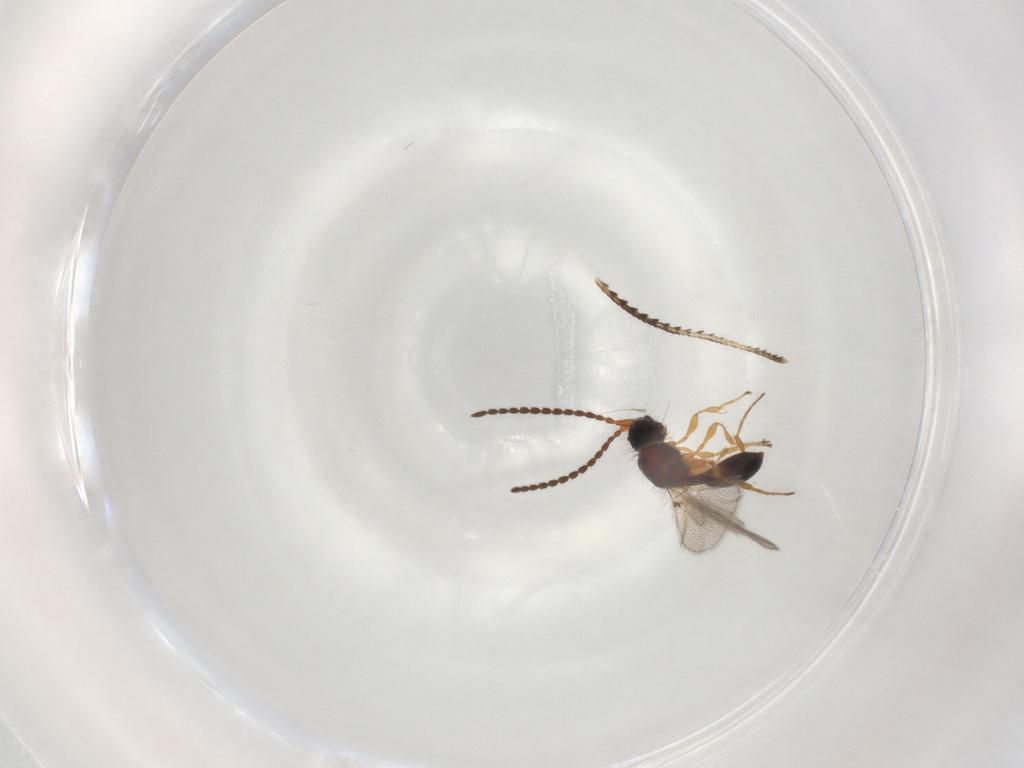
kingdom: Animalia
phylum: Arthropoda
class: Insecta
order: Hymenoptera
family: Diapriidae
